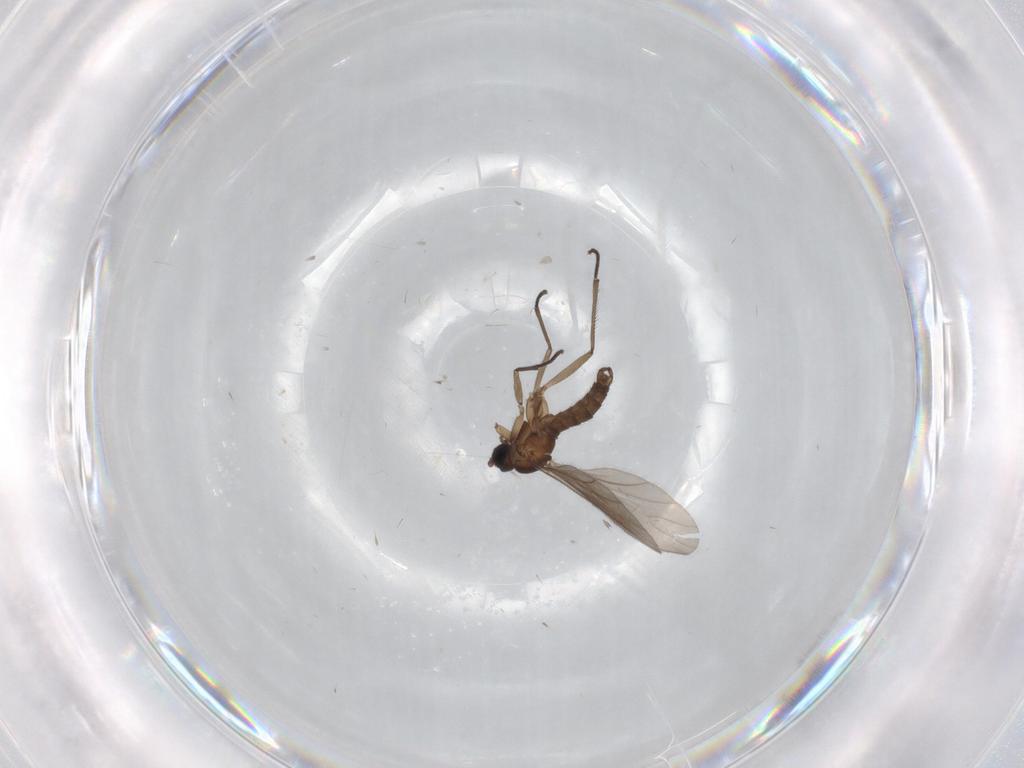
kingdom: Animalia
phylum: Arthropoda
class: Insecta
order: Diptera
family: Sciaridae
